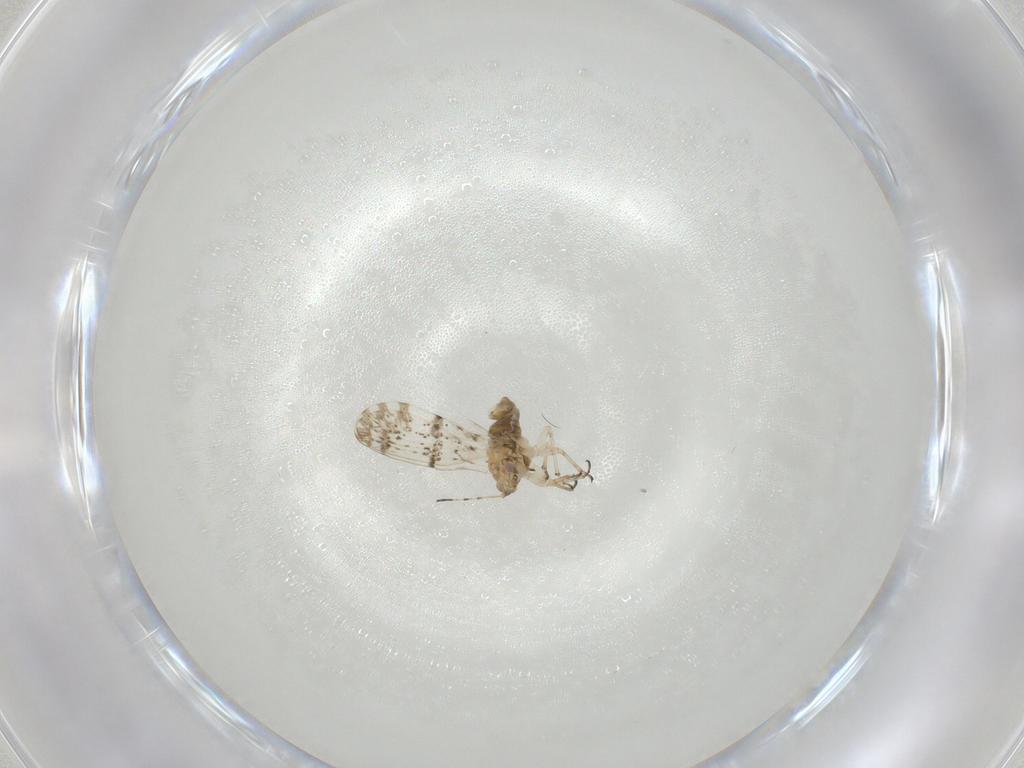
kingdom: Animalia
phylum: Arthropoda
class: Insecta
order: Hemiptera
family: Psylloidea_incertae_sedis
